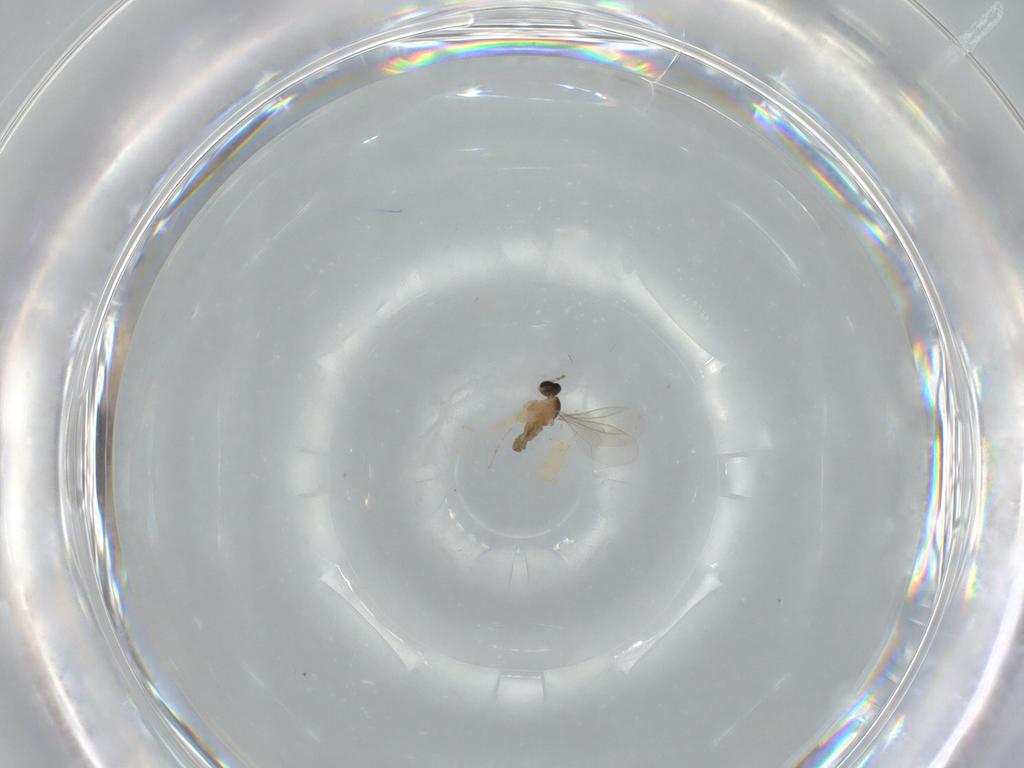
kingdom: Animalia
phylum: Arthropoda
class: Insecta
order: Diptera
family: Cecidomyiidae
